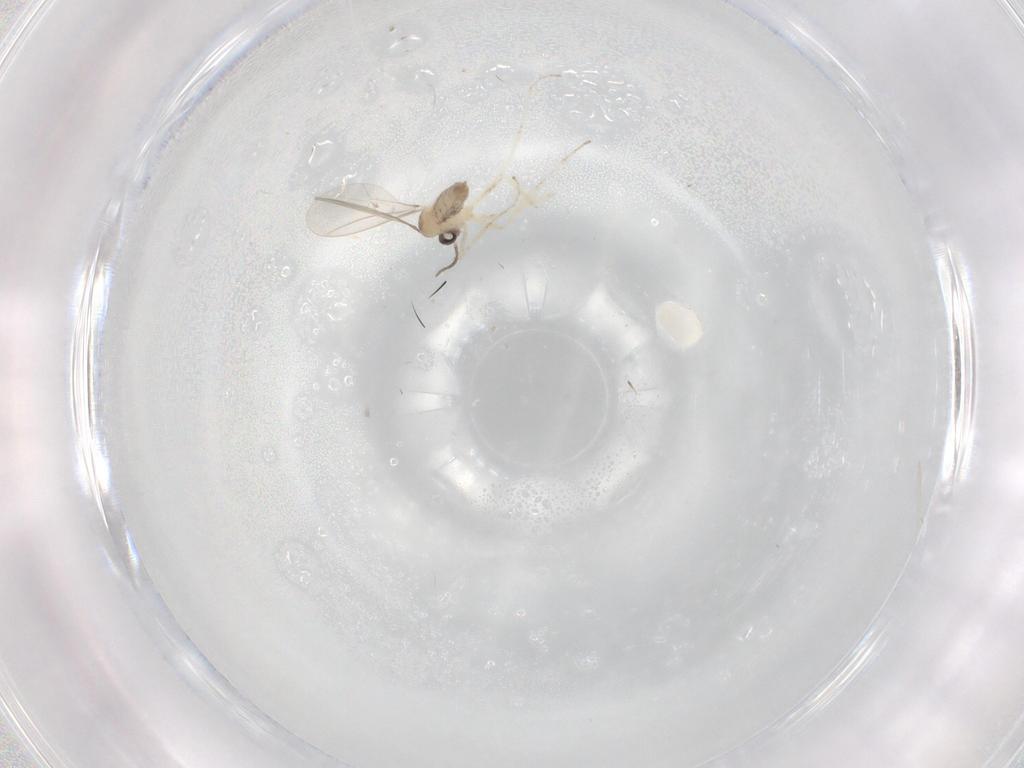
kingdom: Animalia
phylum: Arthropoda
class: Insecta
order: Diptera
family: Cecidomyiidae
